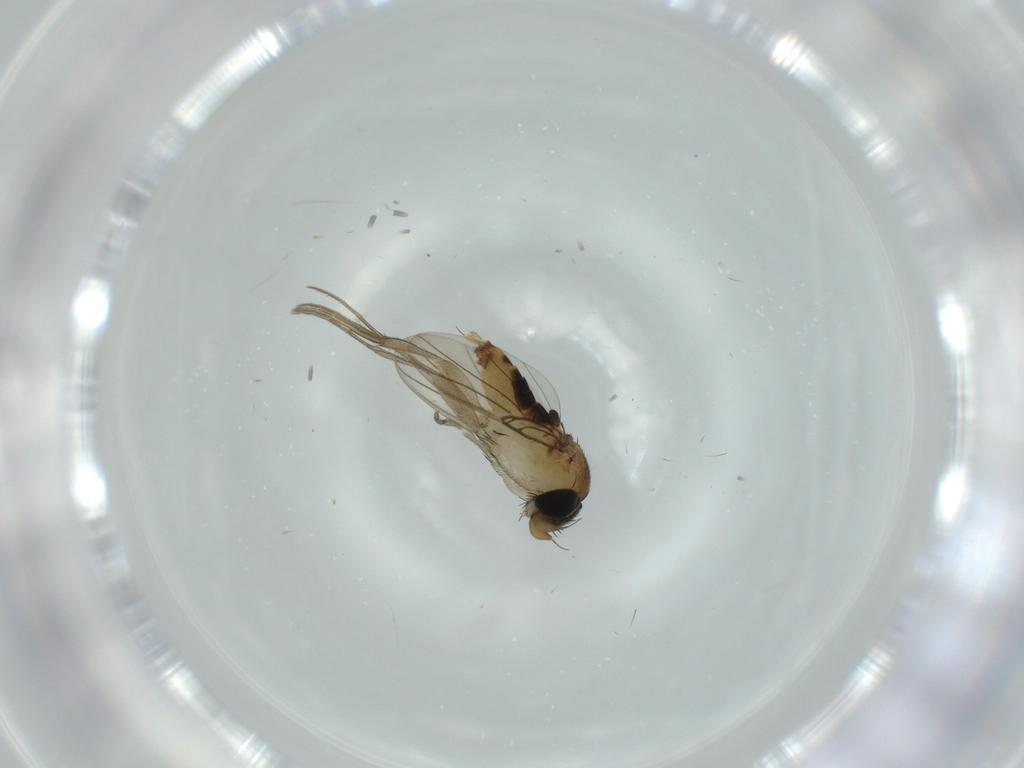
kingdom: Animalia
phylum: Arthropoda
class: Insecta
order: Diptera
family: Phoridae
